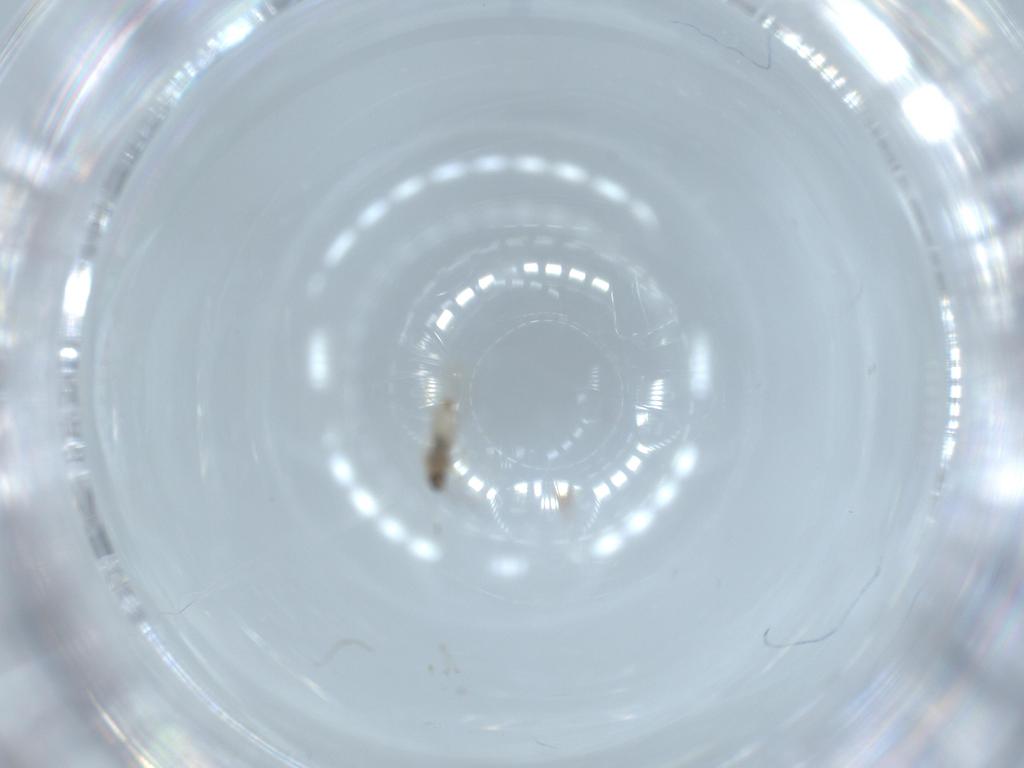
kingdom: Animalia
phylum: Arthropoda
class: Insecta
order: Diptera
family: Cecidomyiidae
